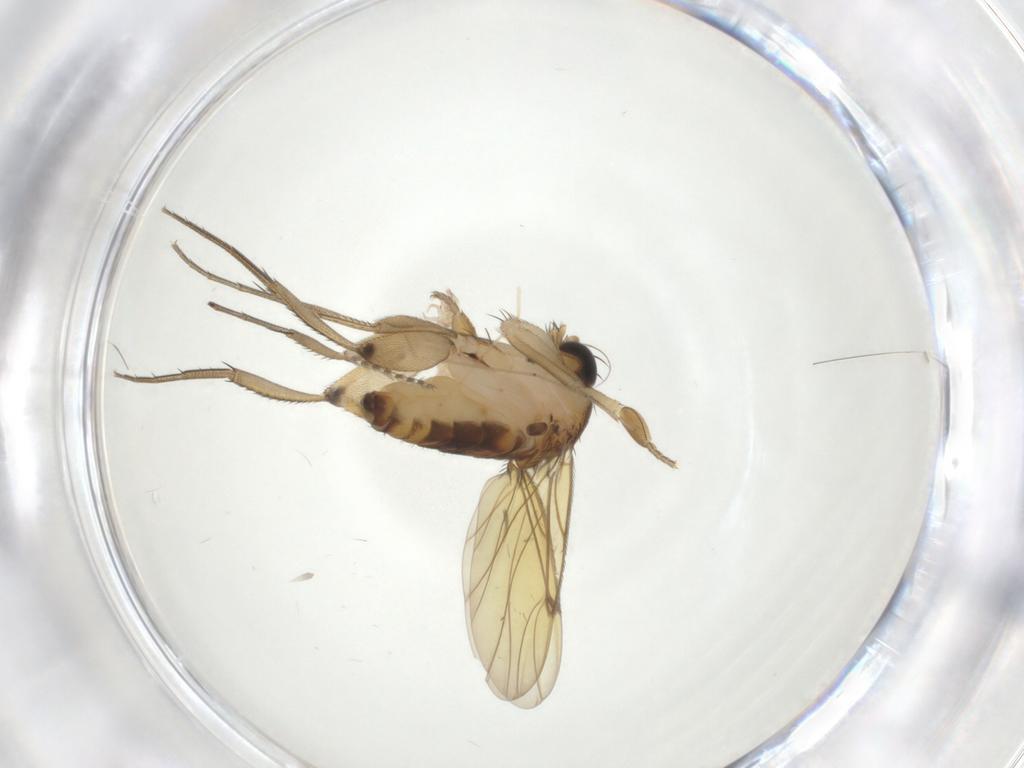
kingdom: Animalia
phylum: Arthropoda
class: Insecta
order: Diptera
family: Phoridae
